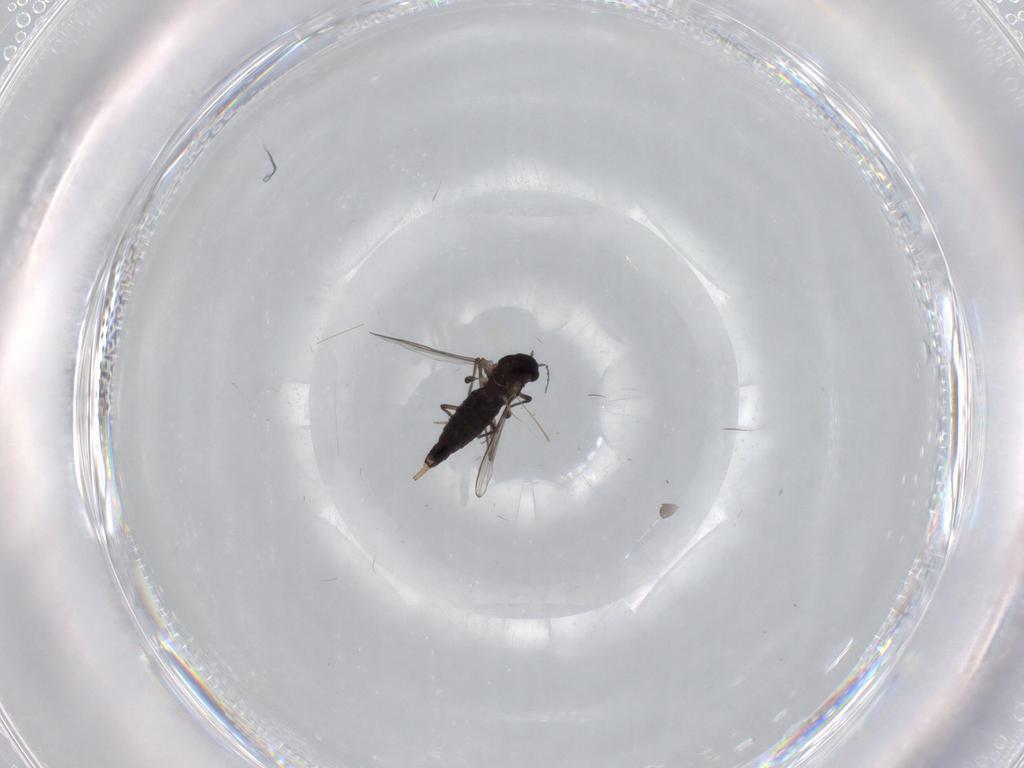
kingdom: Animalia
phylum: Arthropoda
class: Insecta
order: Diptera
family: Chironomidae
